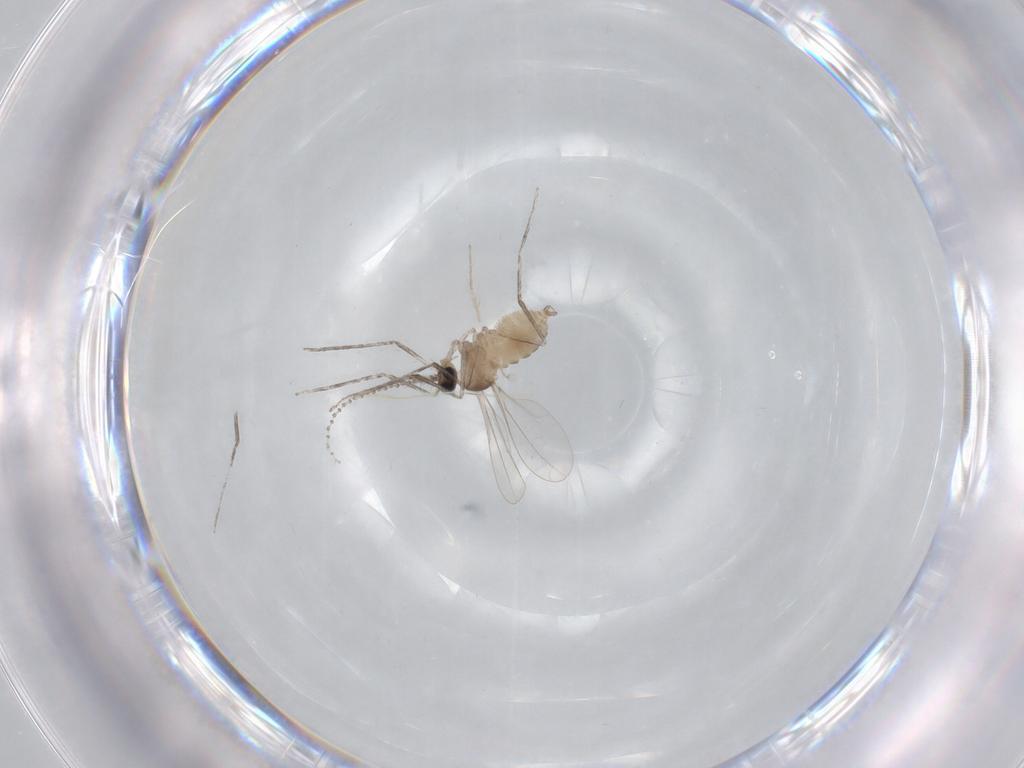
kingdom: Animalia
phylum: Arthropoda
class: Insecta
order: Diptera
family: Cecidomyiidae
